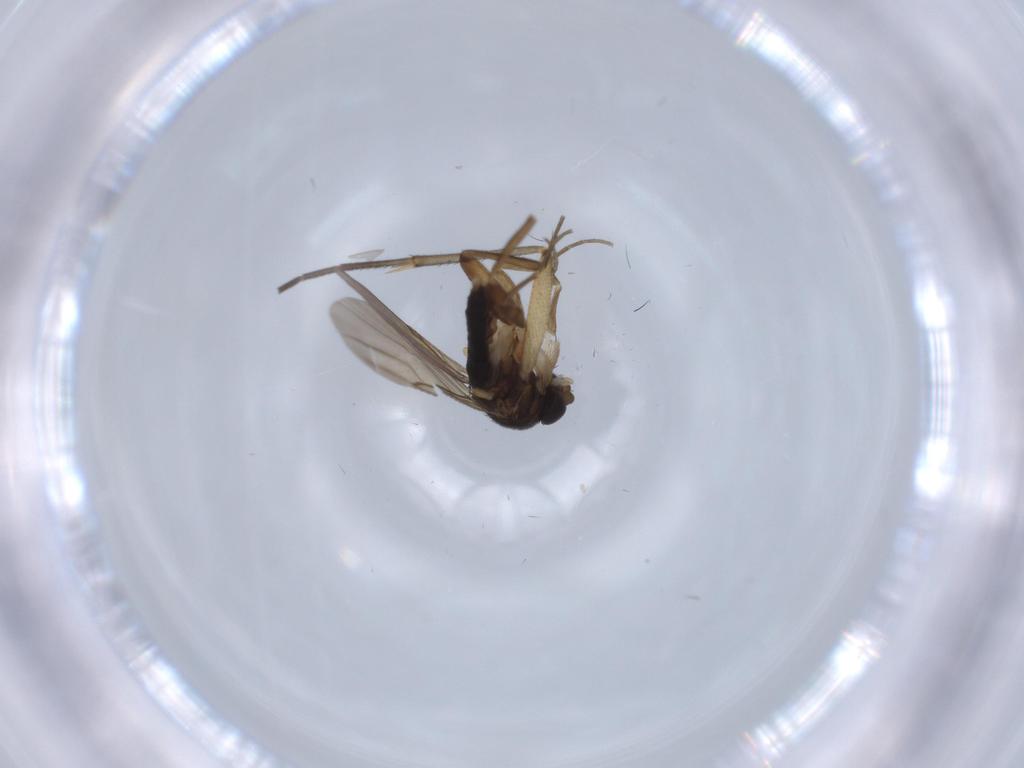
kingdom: Animalia
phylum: Arthropoda
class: Insecta
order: Diptera
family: Phoridae
